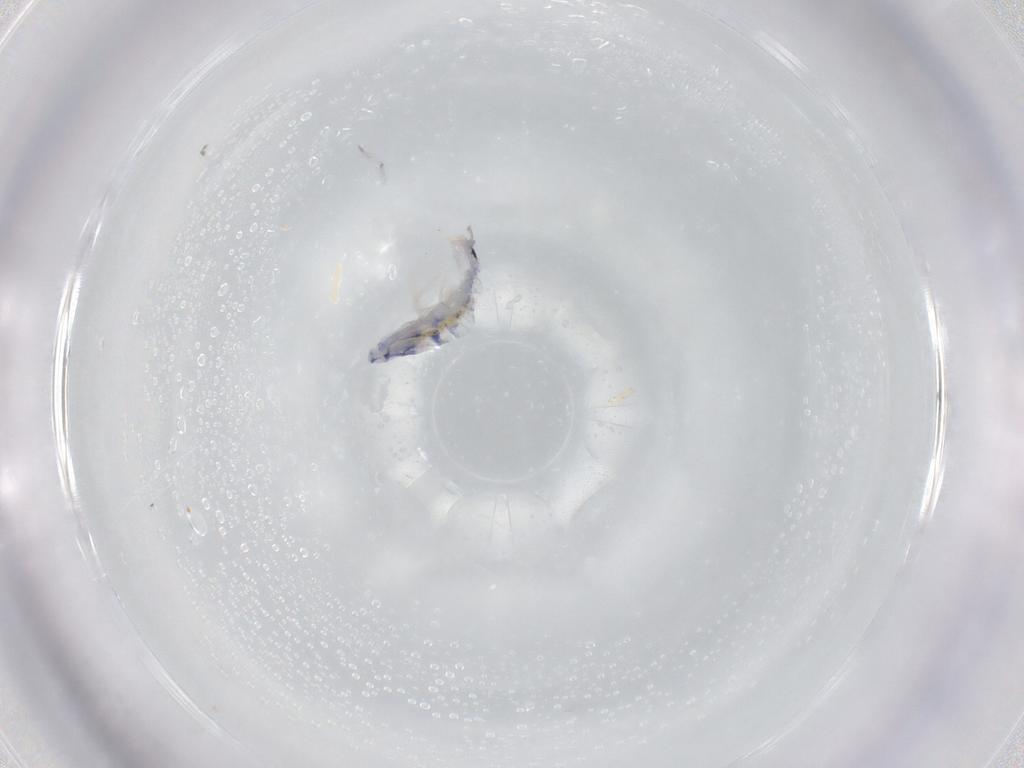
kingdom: Animalia
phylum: Arthropoda
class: Collembola
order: Entomobryomorpha
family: Entomobryidae
